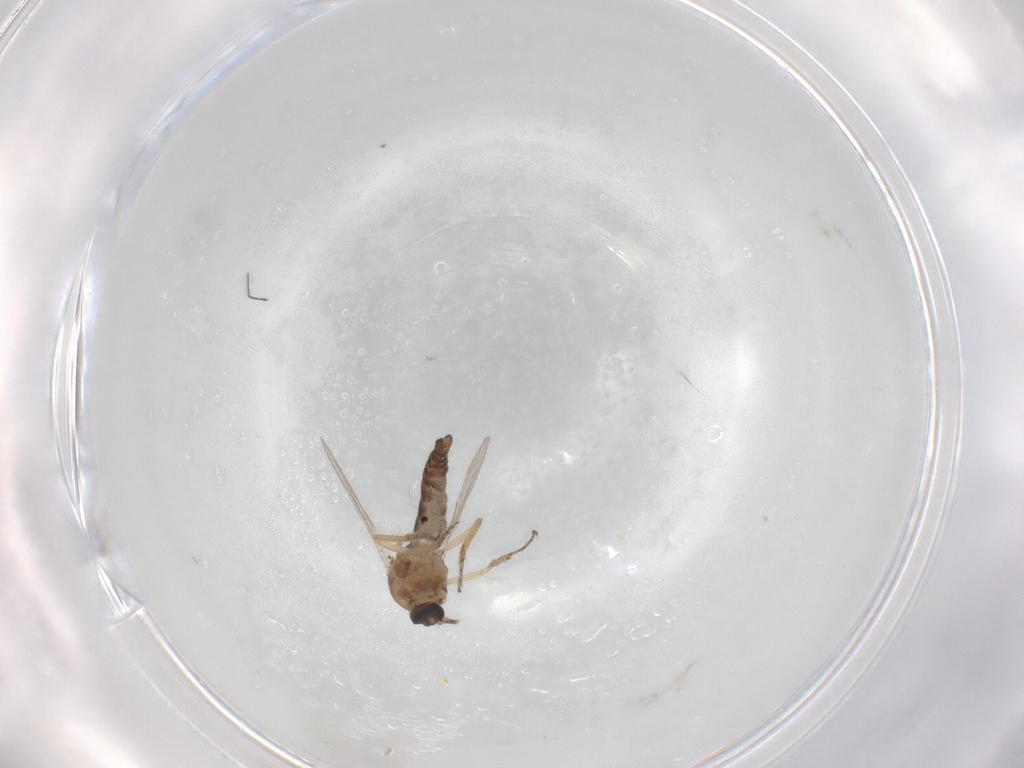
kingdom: Animalia
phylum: Arthropoda
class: Insecta
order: Diptera
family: Ceratopogonidae
